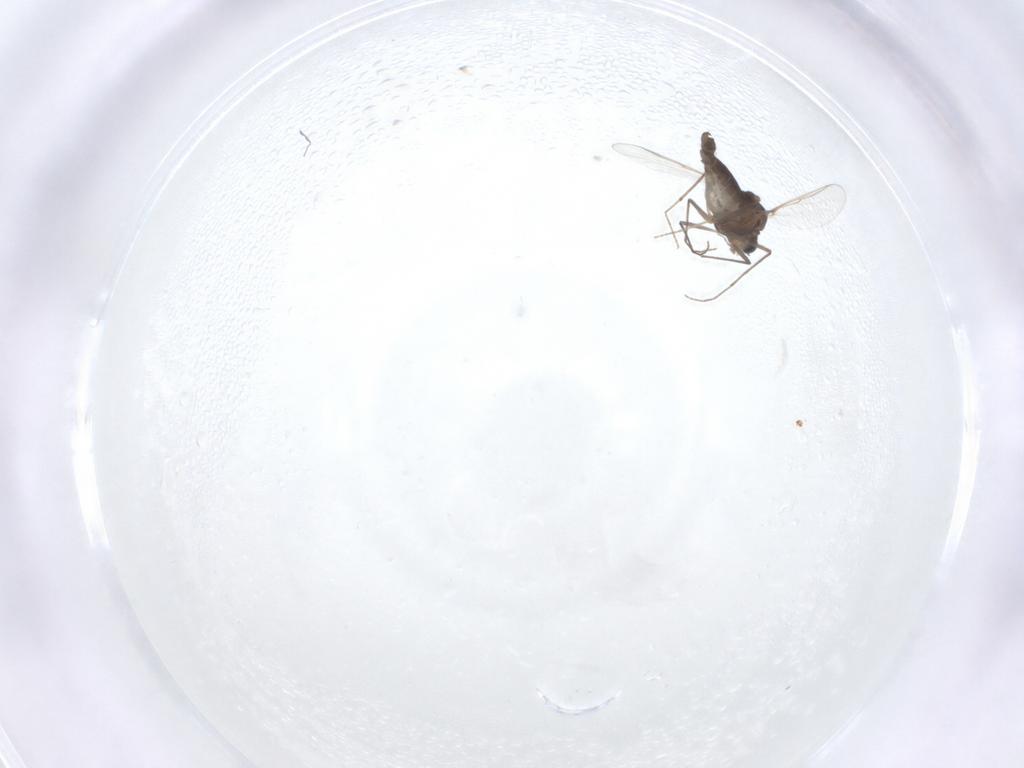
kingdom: Animalia
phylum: Arthropoda
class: Insecta
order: Diptera
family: Chironomidae
